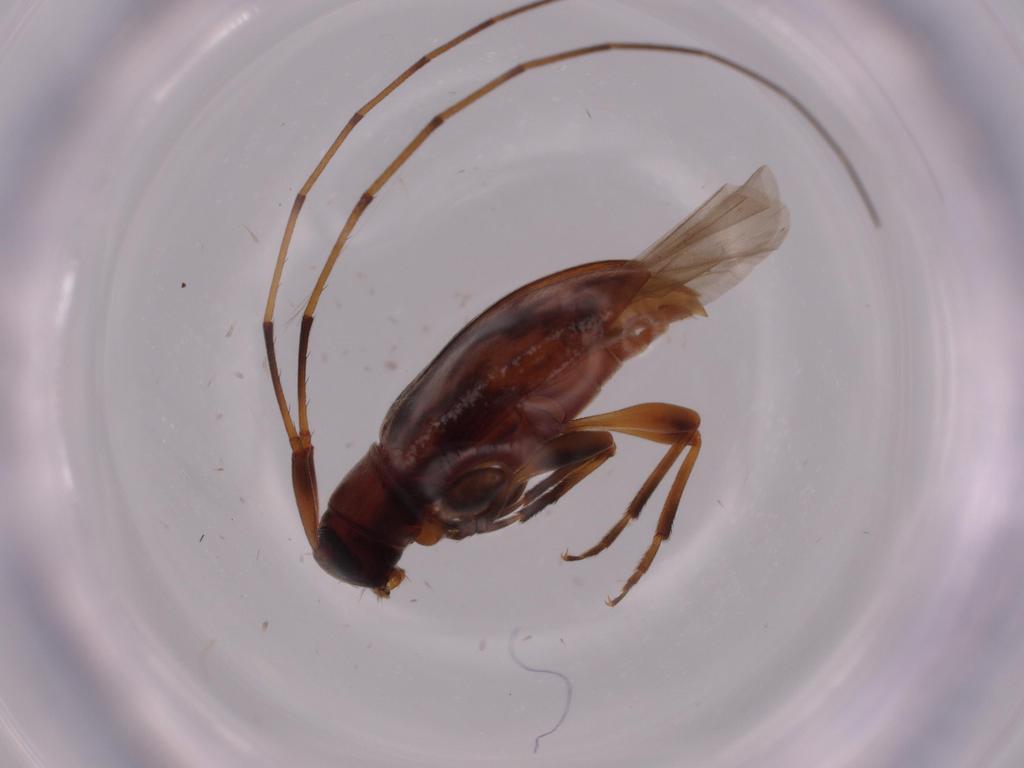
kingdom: Animalia
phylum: Arthropoda
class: Insecta
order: Coleoptera
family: Cerambycidae
